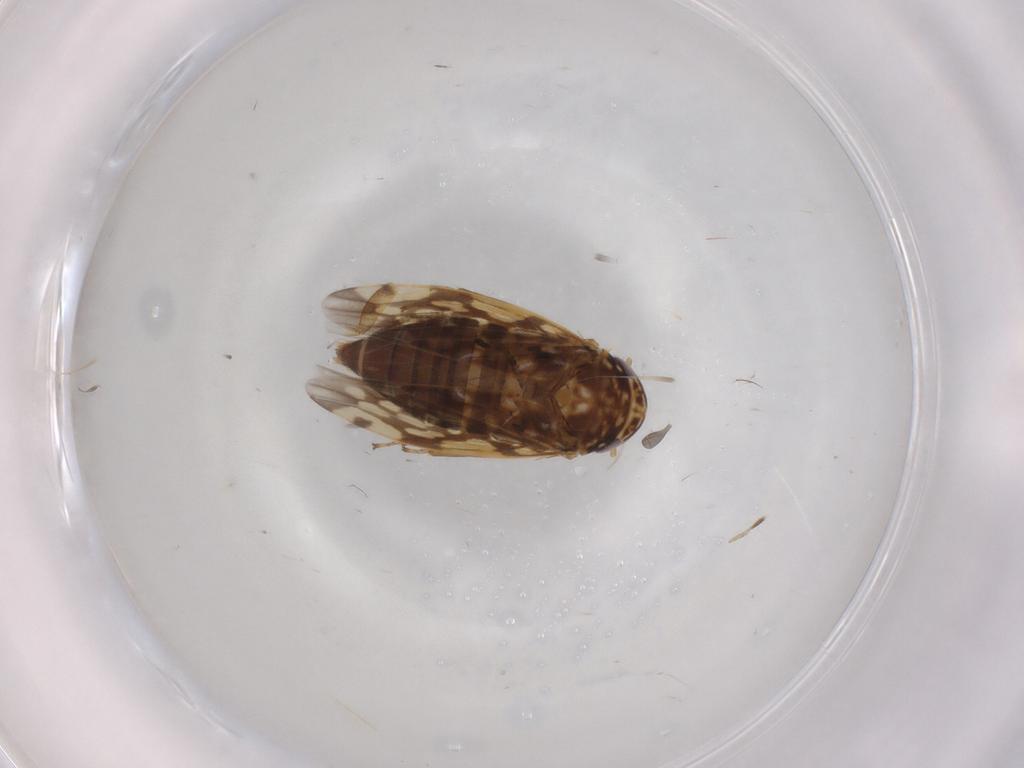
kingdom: Animalia
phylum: Arthropoda
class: Insecta
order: Hemiptera
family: Cicadellidae
